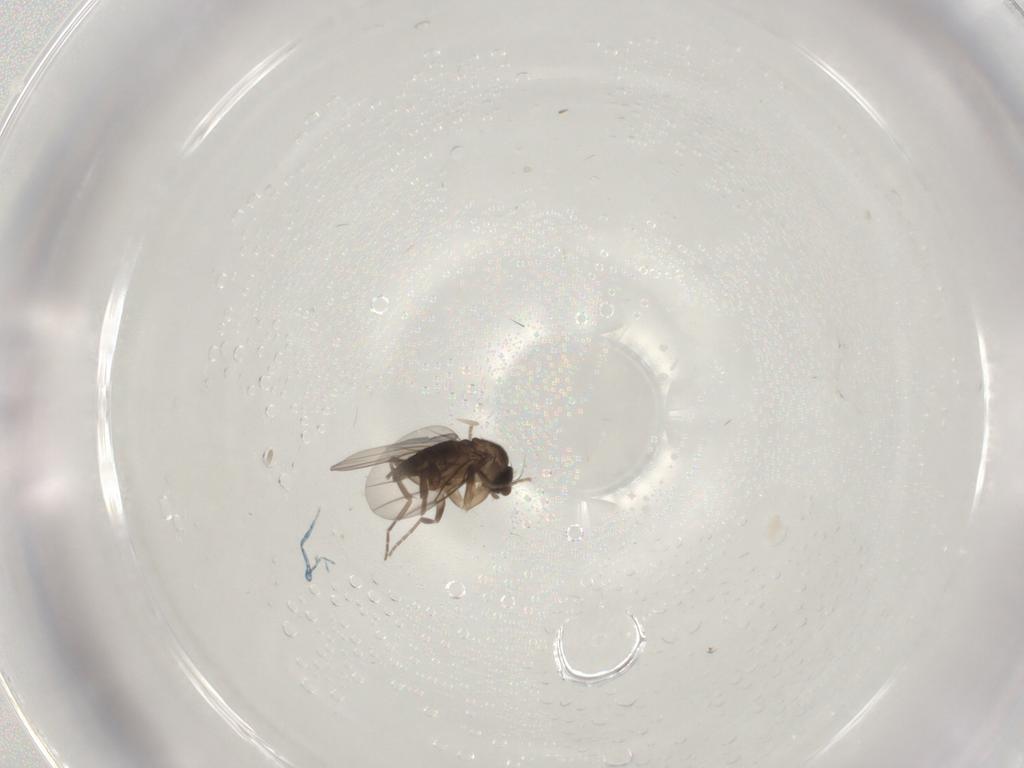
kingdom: Animalia
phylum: Arthropoda
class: Insecta
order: Diptera
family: Phoridae
